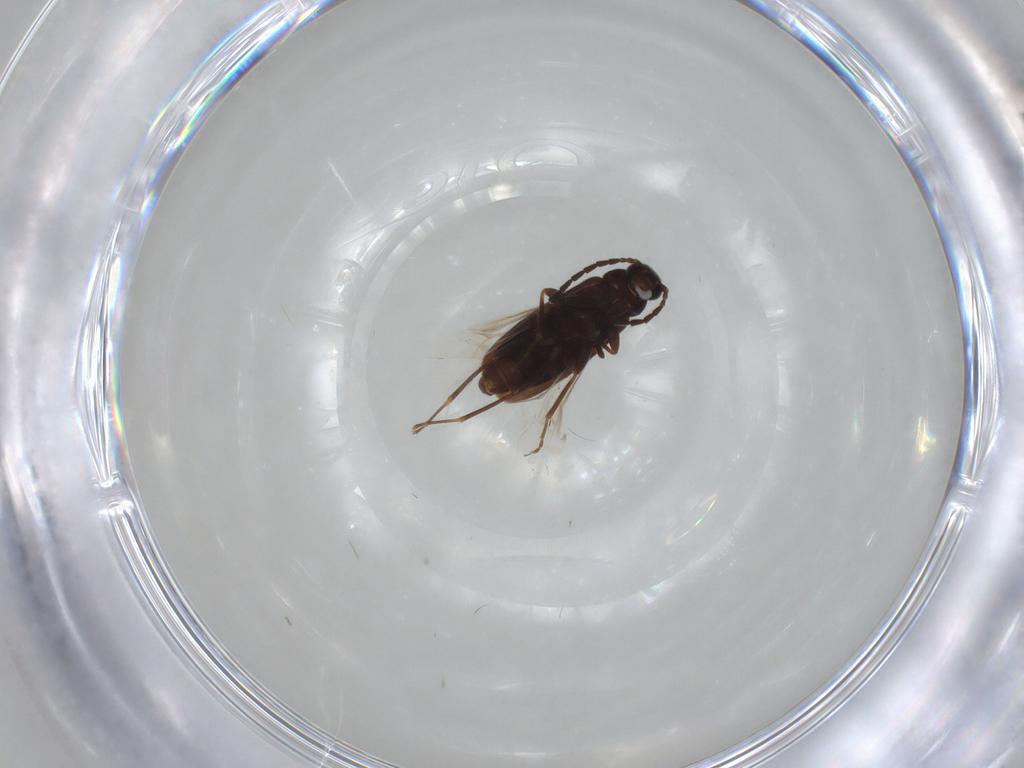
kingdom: Animalia
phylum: Arthropoda
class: Insecta
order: Coleoptera
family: Scraptiidae
